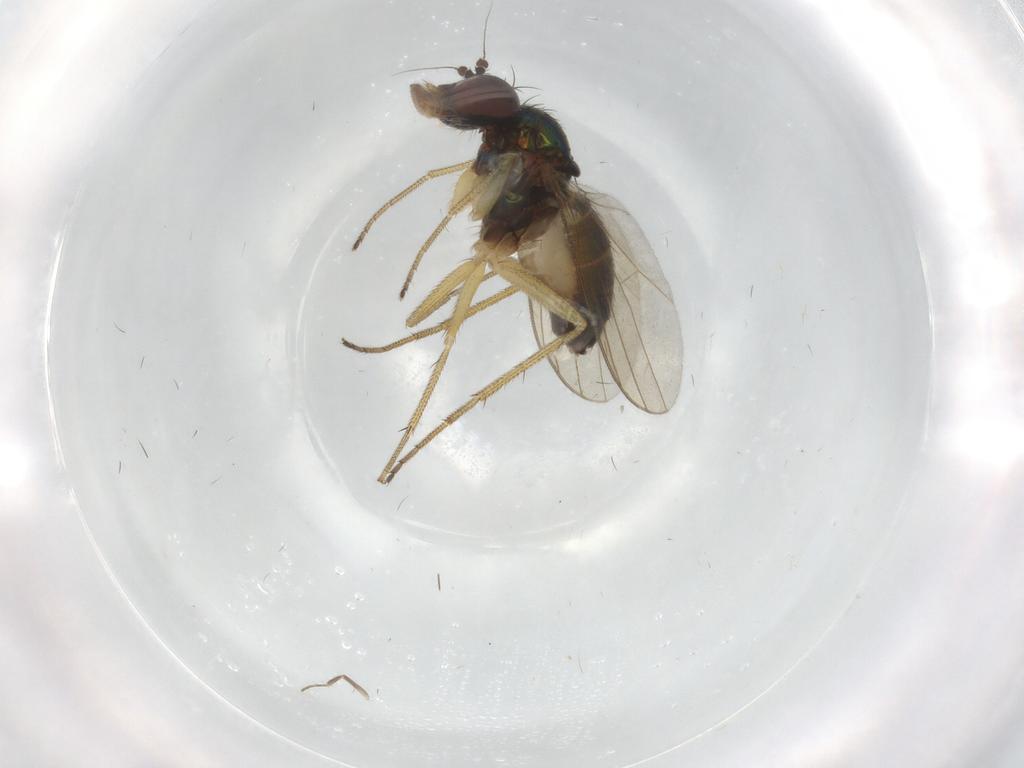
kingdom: Animalia
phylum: Arthropoda
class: Insecta
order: Diptera
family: Dolichopodidae
